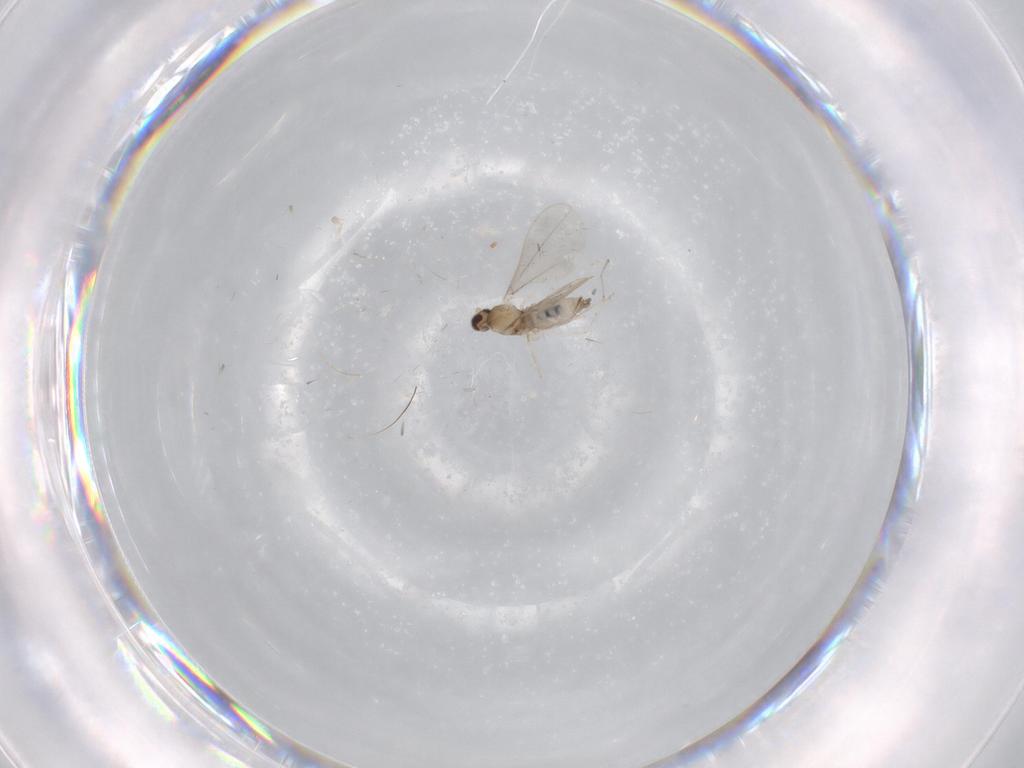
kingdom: Animalia
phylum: Arthropoda
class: Insecta
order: Diptera
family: Cecidomyiidae
